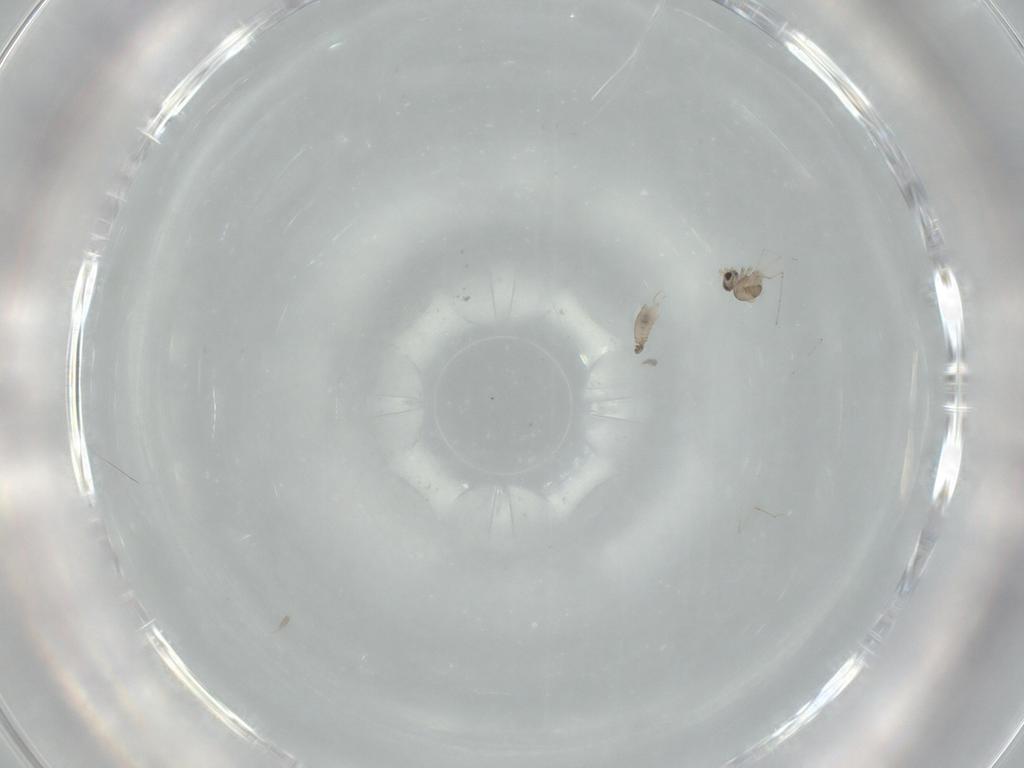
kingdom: Animalia
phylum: Arthropoda
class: Insecta
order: Diptera
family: Cecidomyiidae
